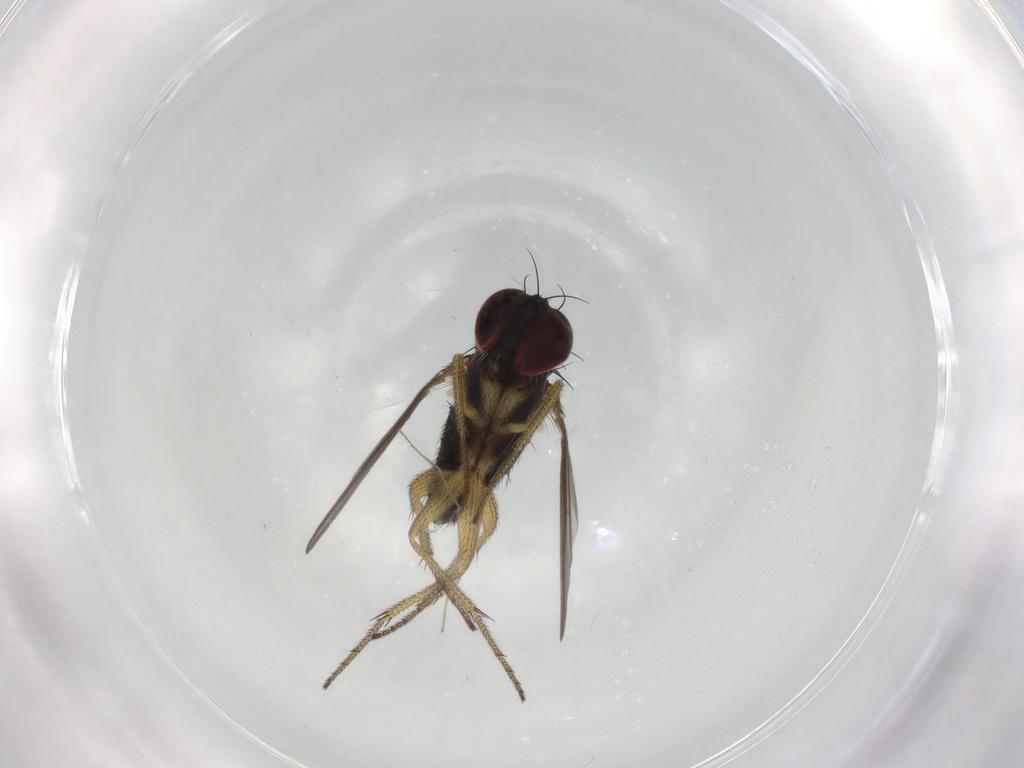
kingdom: Animalia
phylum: Arthropoda
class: Insecta
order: Diptera
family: Dolichopodidae
